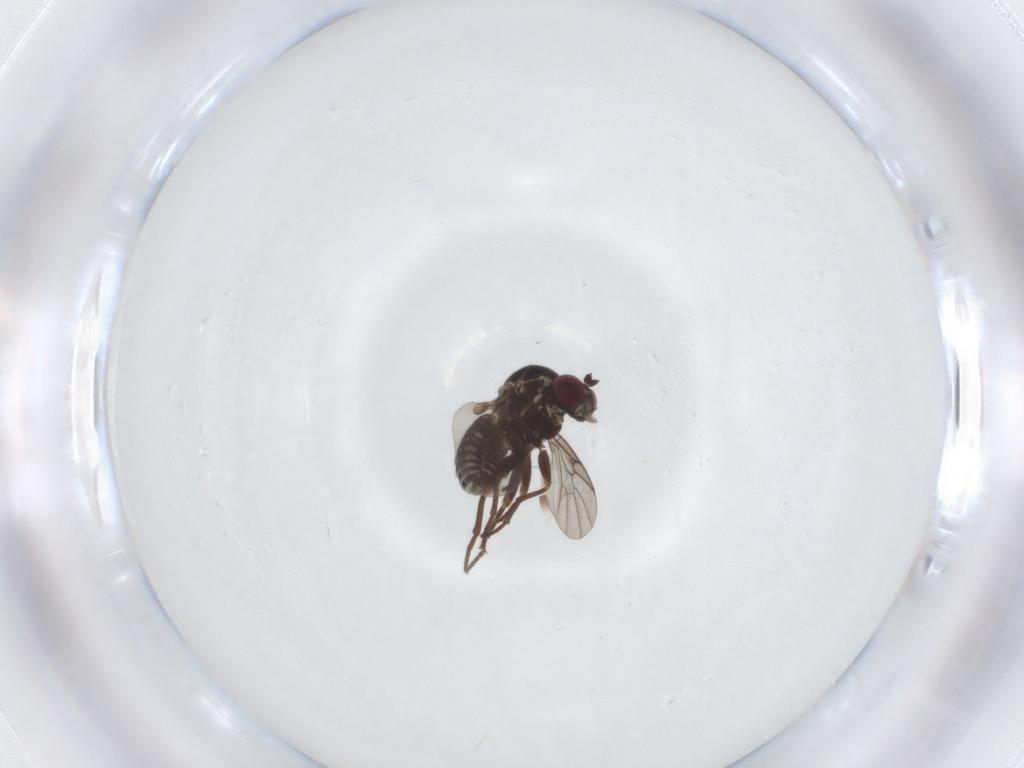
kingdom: Animalia
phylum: Arthropoda
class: Insecta
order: Diptera
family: Mythicomyiidae
